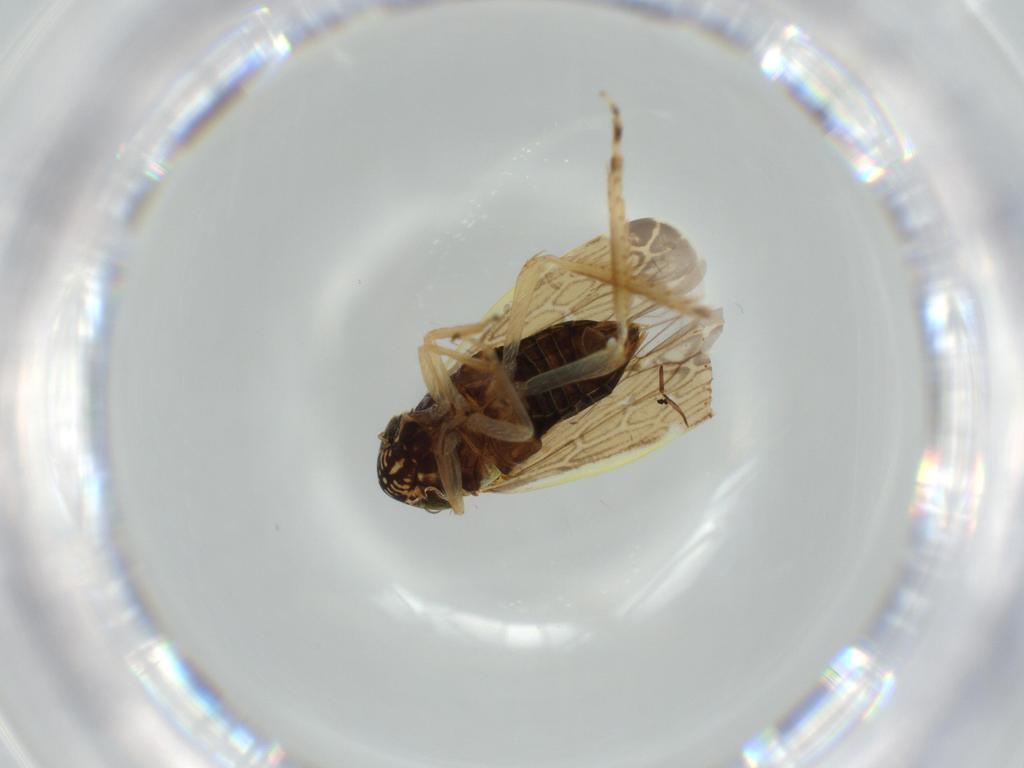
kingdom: Animalia
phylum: Arthropoda
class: Insecta
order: Hemiptera
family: Cicadellidae
